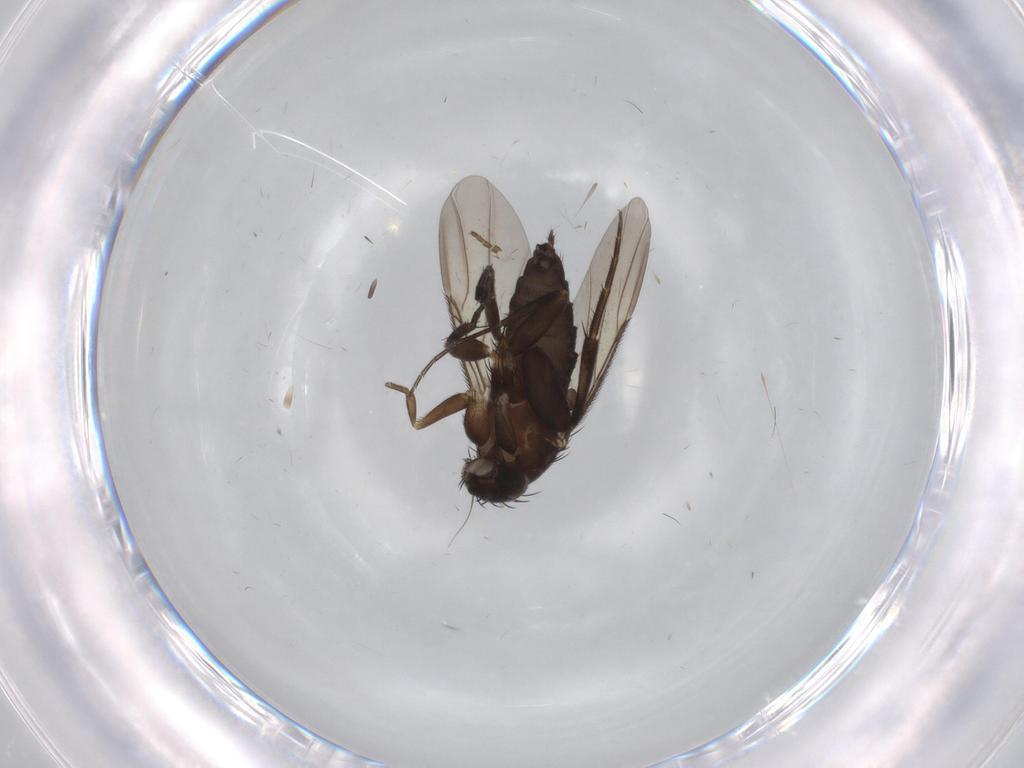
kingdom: Animalia
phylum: Arthropoda
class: Insecta
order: Diptera
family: Phoridae
